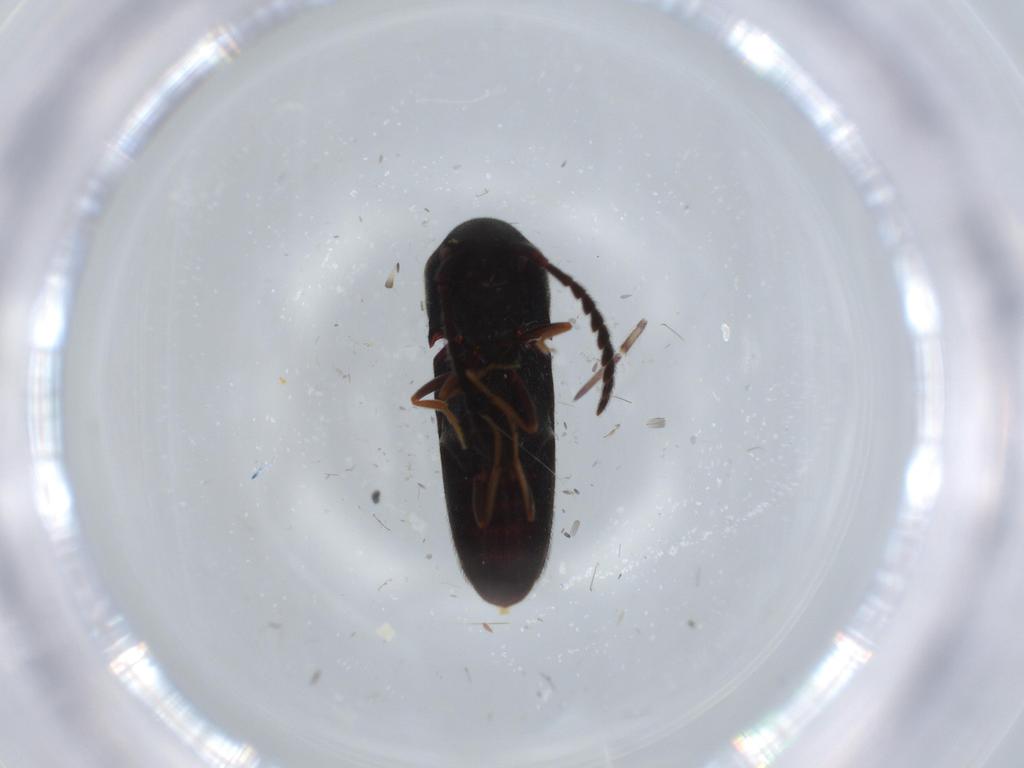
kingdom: Animalia
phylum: Arthropoda
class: Insecta
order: Coleoptera
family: Eucnemidae
